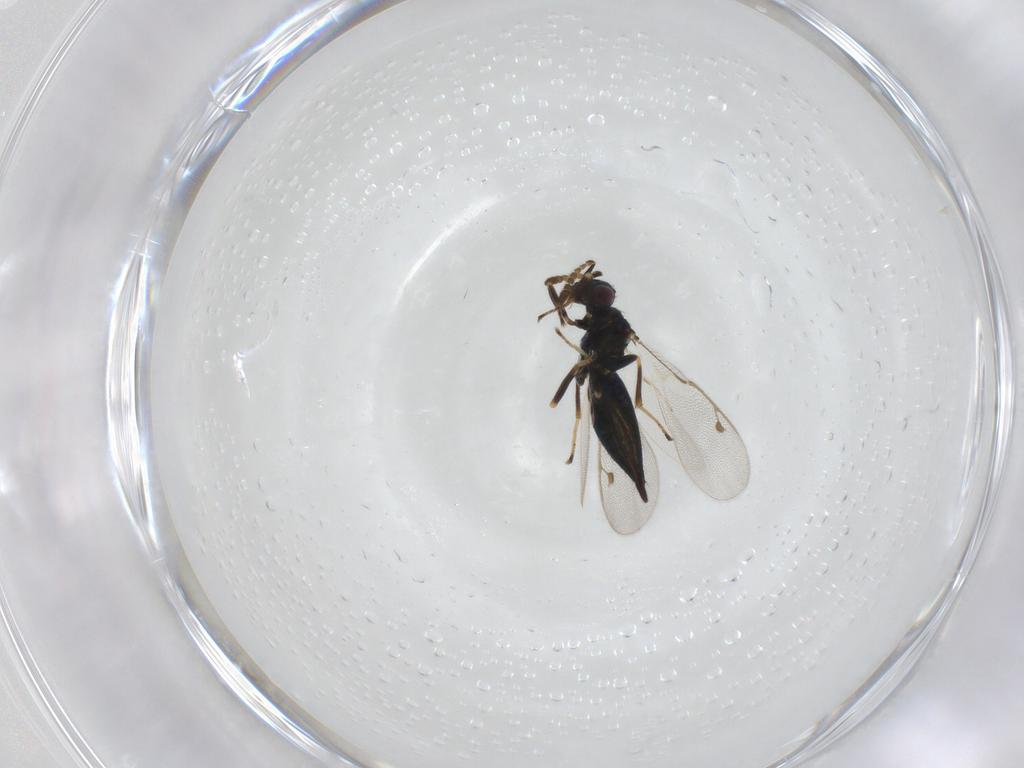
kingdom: Animalia
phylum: Arthropoda
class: Insecta
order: Hymenoptera
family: Pirenidae
